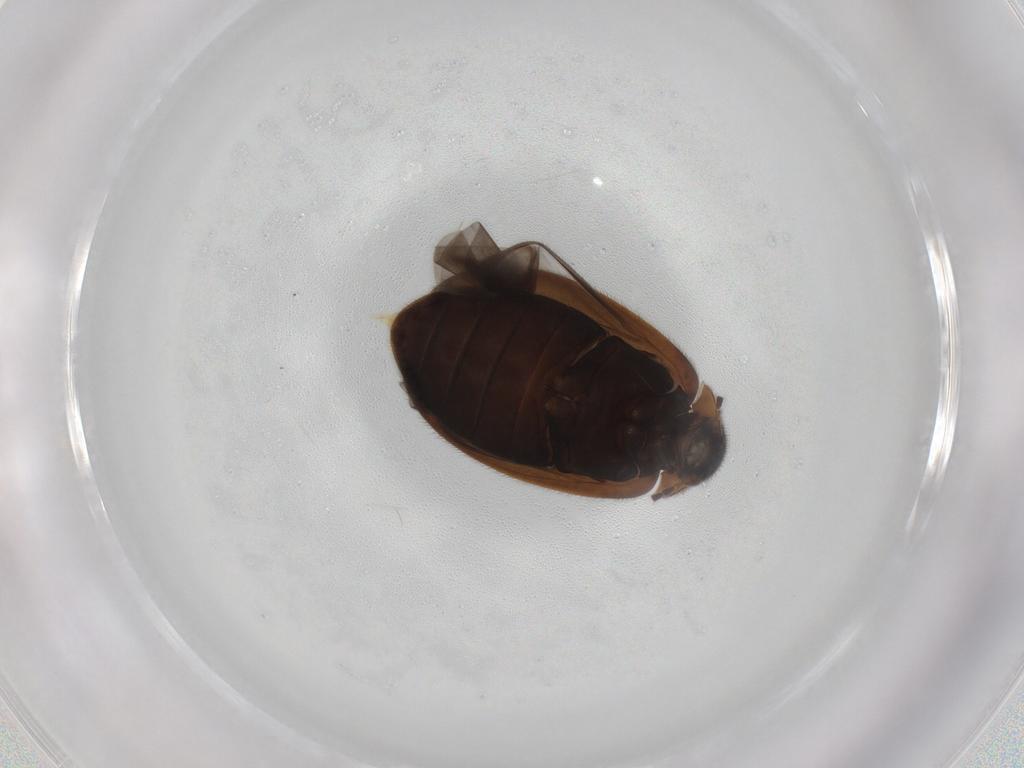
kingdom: Animalia
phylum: Arthropoda
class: Insecta
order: Coleoptera
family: Scirtidae
